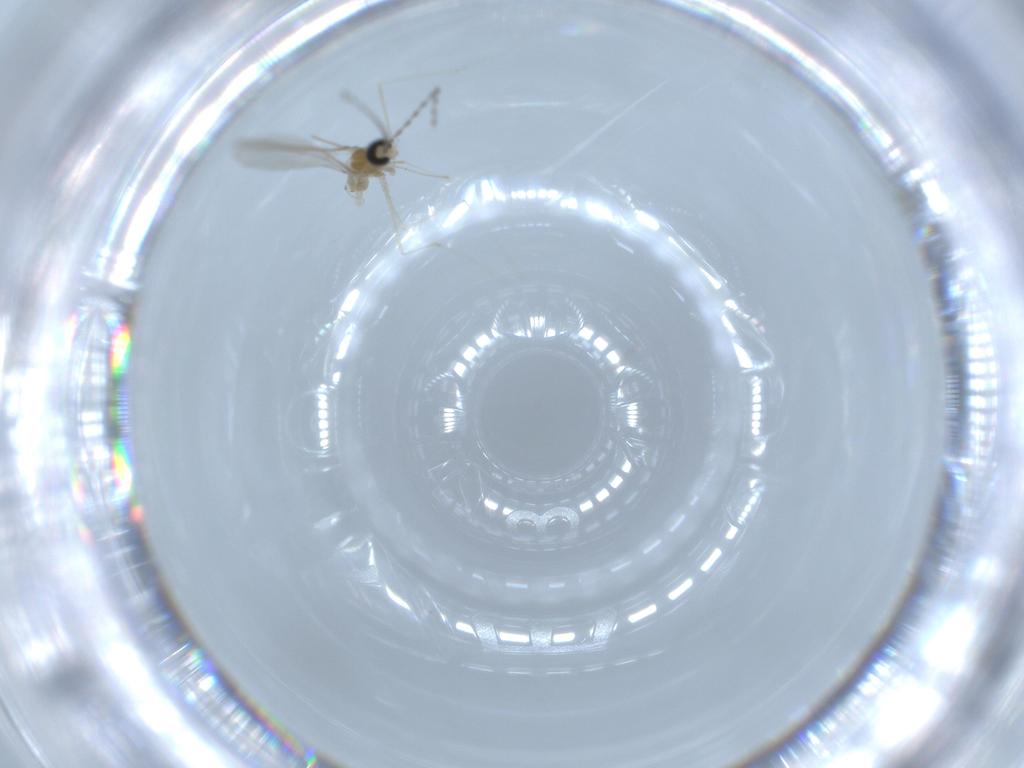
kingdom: Animalia
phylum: Arthropoda
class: Insecta
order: Diptera
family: Cecidomyiidae
